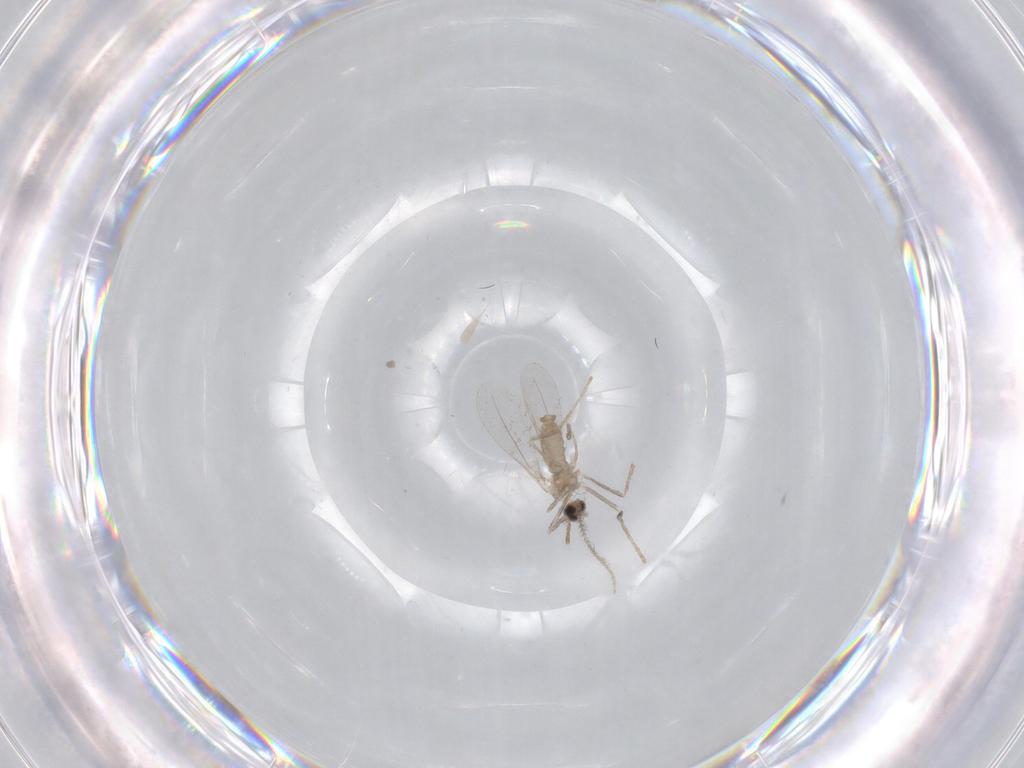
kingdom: Animalia
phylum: Arthropoda
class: Insecta
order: Diptera
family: Cecidomyiidae
